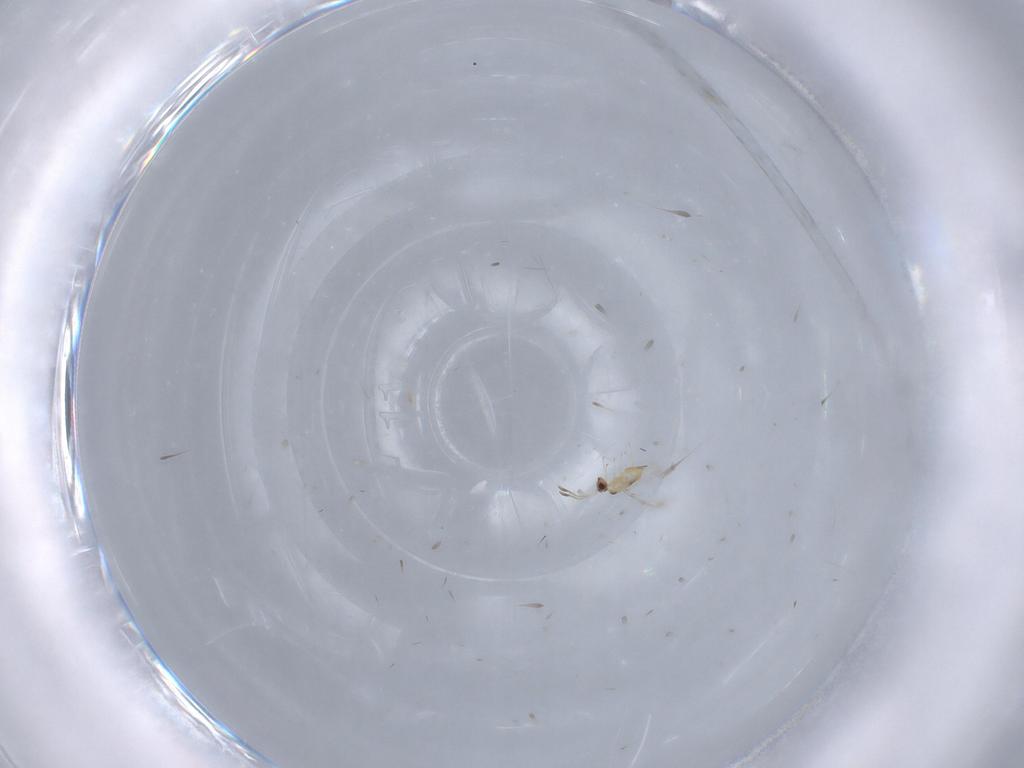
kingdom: Animalia
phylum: Arthropoda
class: Insecta
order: Hymenoptera
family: Mymaridae
